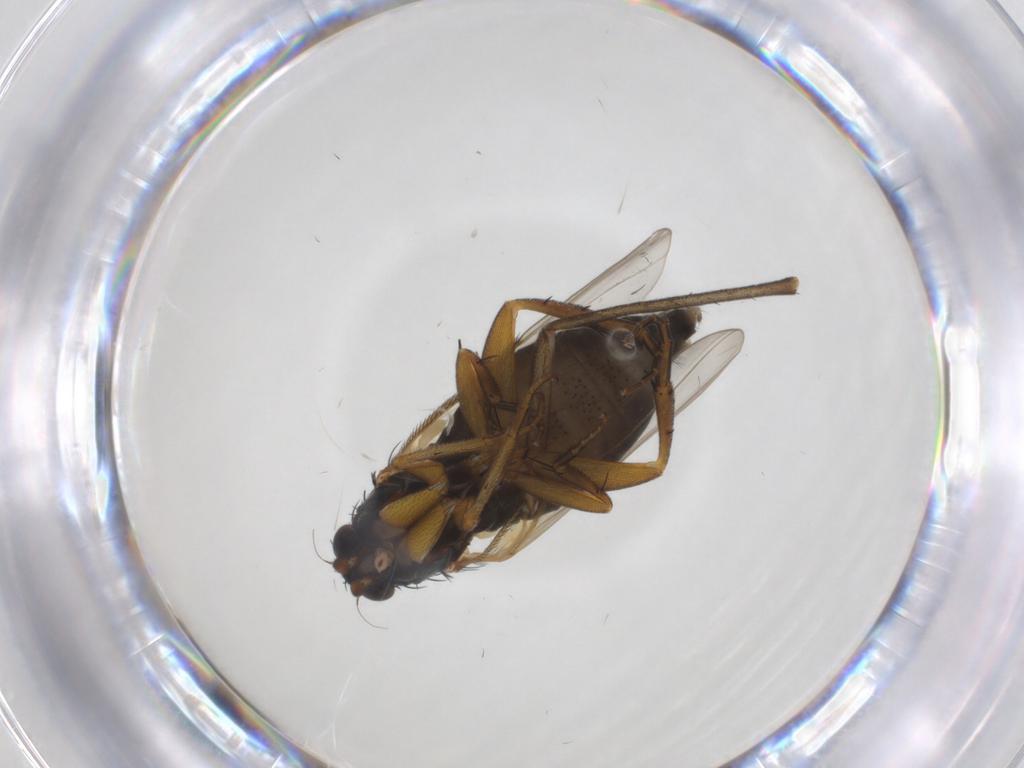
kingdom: Animalia
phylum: Arthropoda
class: Insecta
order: Diptera
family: Phoridae
